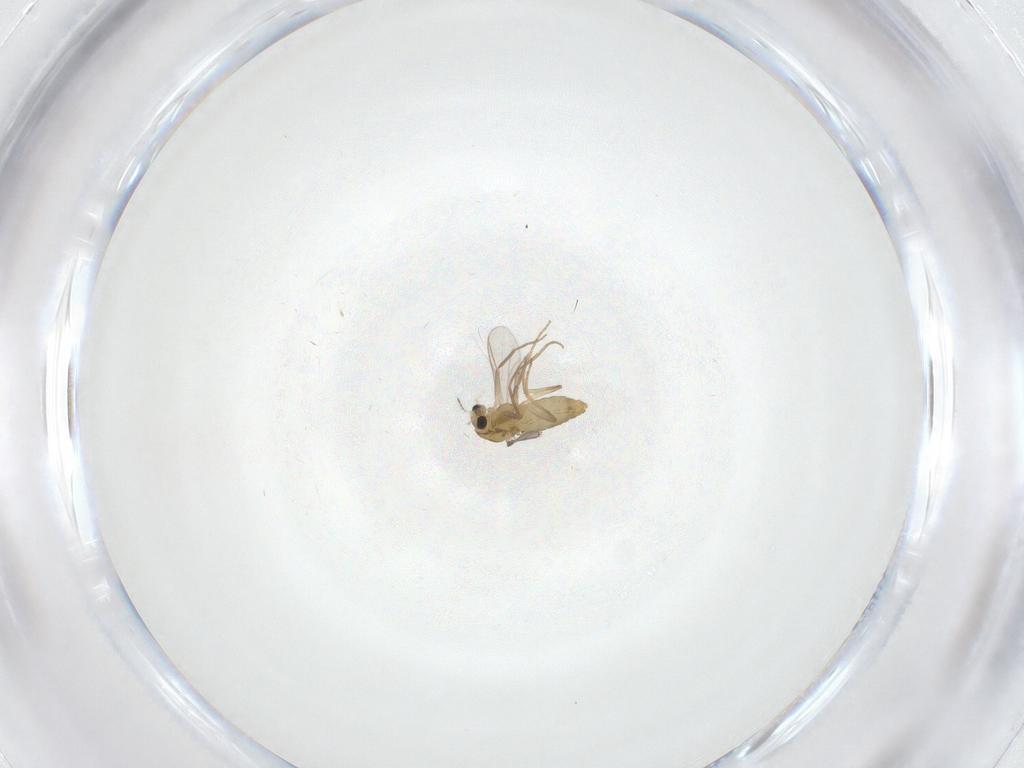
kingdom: Animalia
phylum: Arthropoda
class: Insecta
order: Diptera
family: Chironomidae
